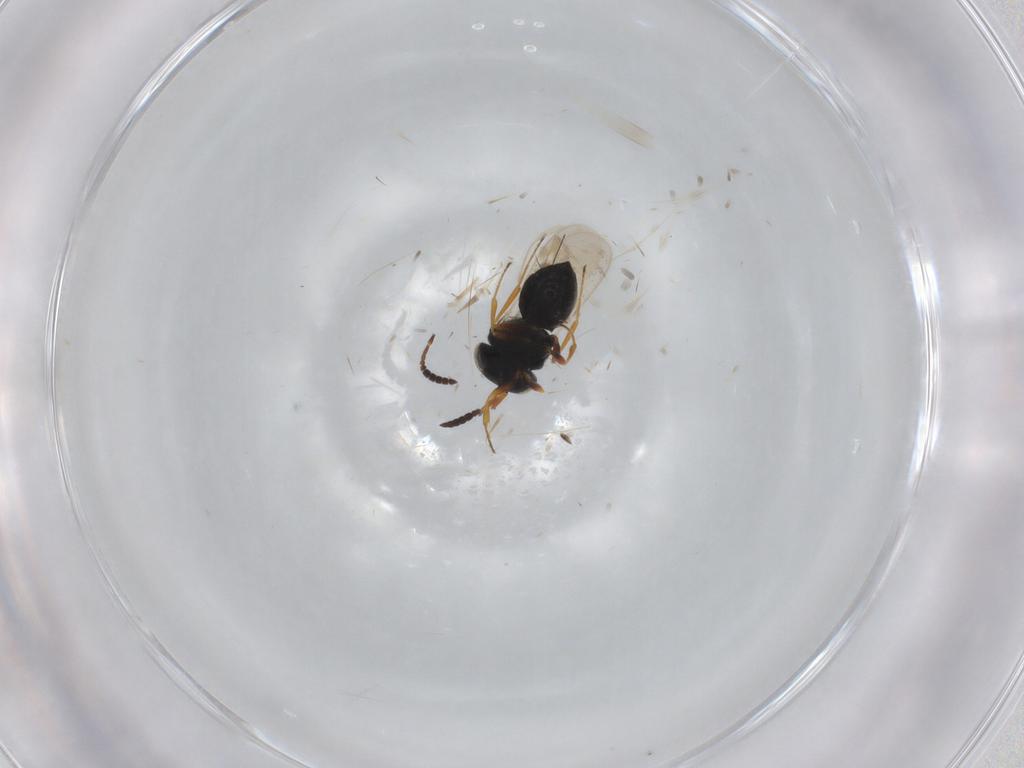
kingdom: Animalia
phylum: Arthropoda
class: Insecta
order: Hymenoptera
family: Scelionidae
